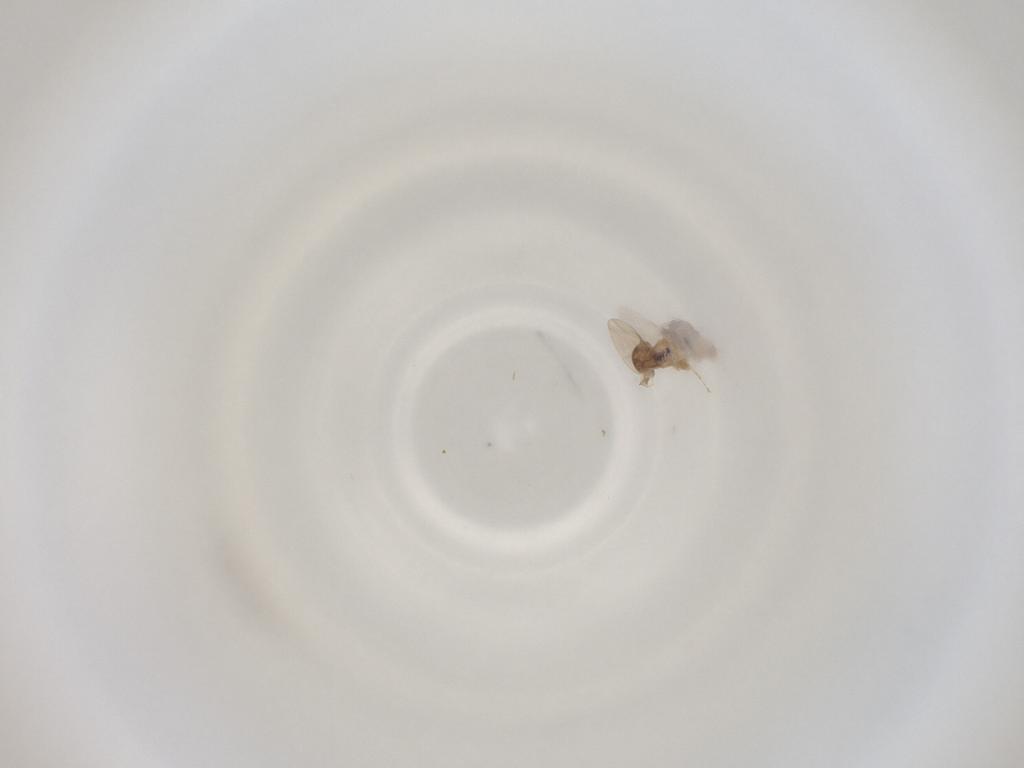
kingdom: Animalia
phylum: Arthropoda
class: Insecta
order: Diptera
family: Cecidomyiidae
